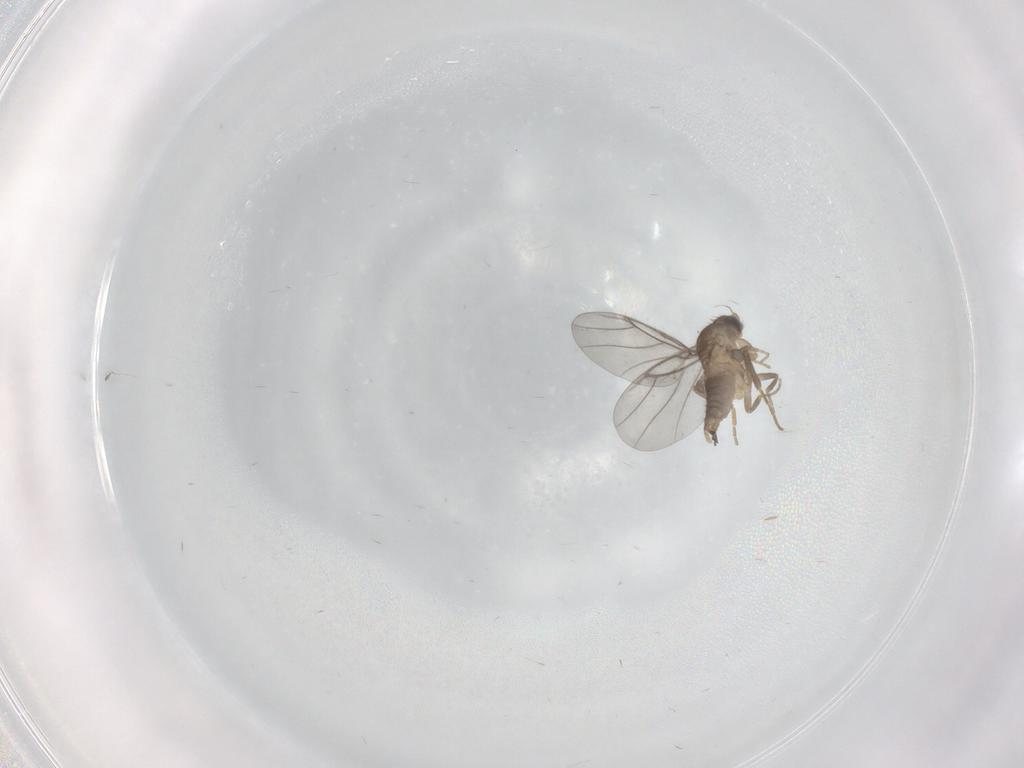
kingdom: Animalia
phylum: Arthropoda
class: Insecta
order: Diptera
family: Chironomidae
